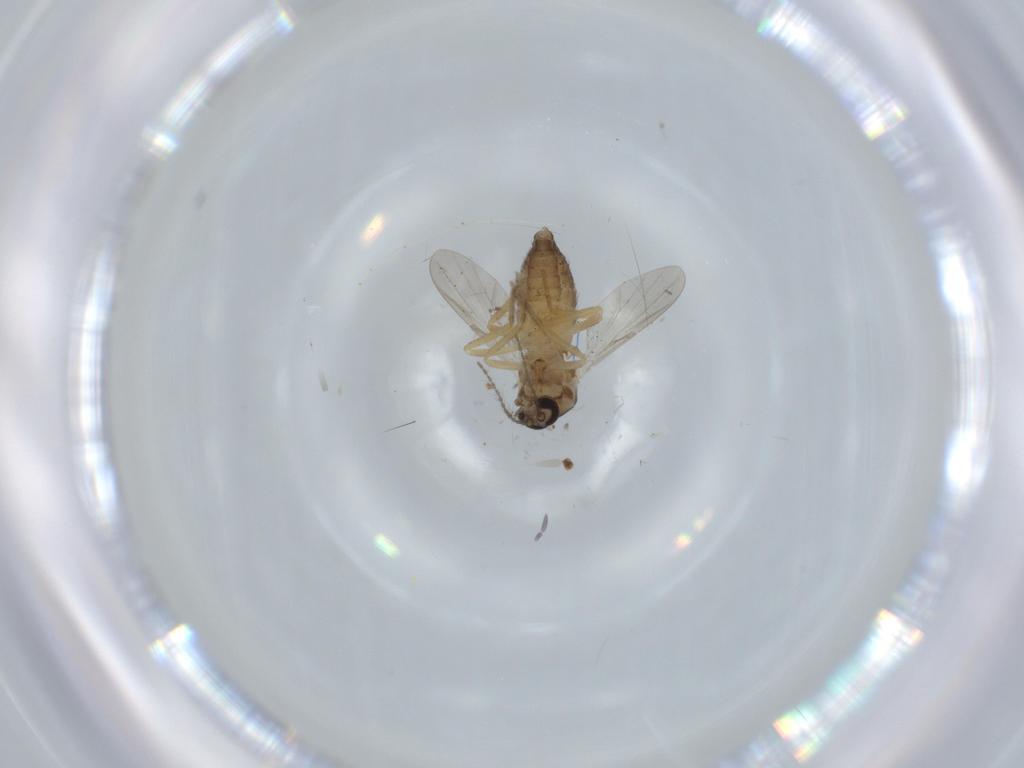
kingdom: Animalia
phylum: Arthropoda
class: Insecta
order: Diptera
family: Ceratopogonidae
